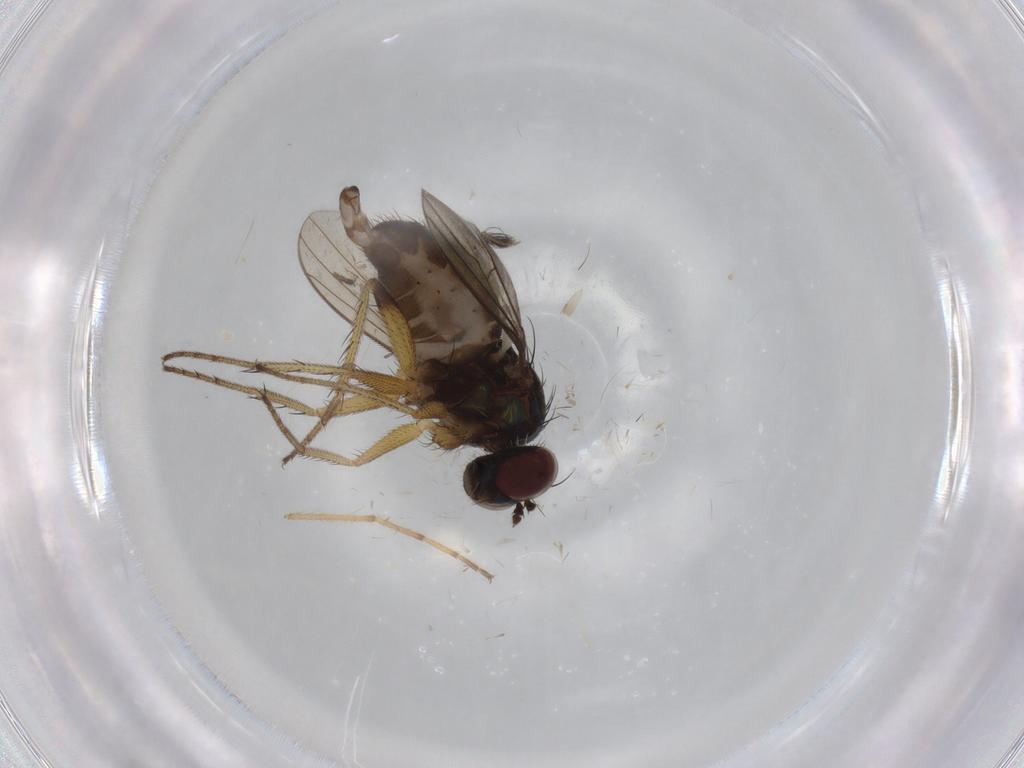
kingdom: Animalia
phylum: Arthropoda
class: Insecta
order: Diptera
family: Dolichopodidae
